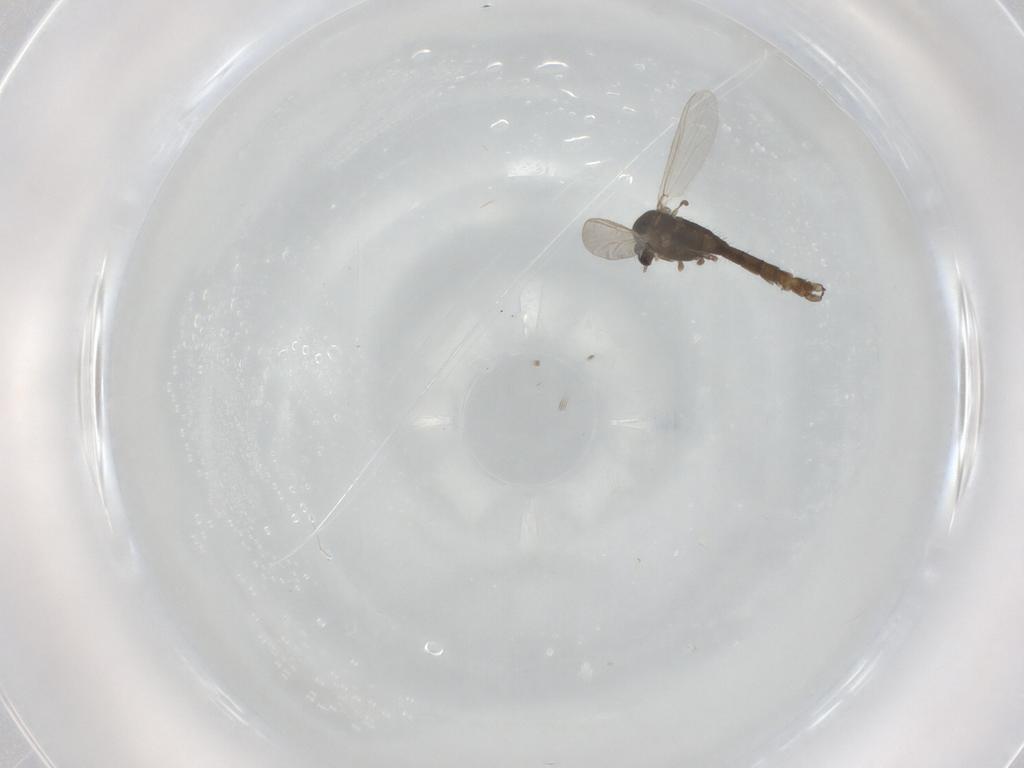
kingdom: Animalia
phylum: Arthropoda
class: Insecta
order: Diptera
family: Chironomidae
